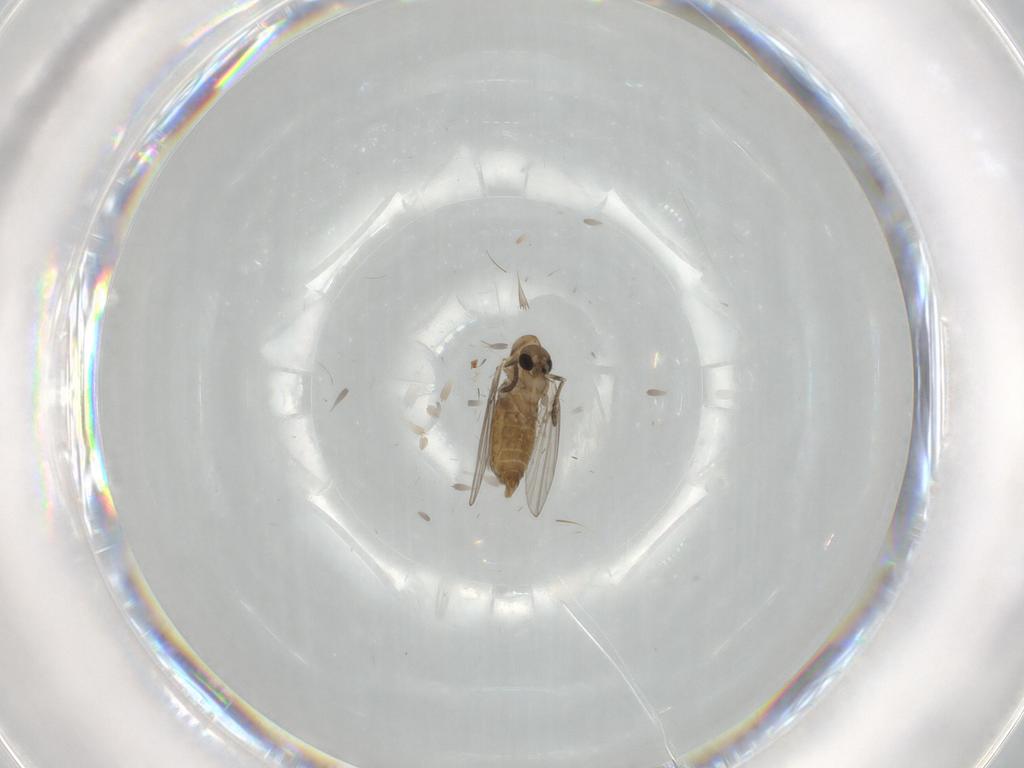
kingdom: Animalia
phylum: Arthropoda
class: Insecta
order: Diptera
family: Psychodidae
